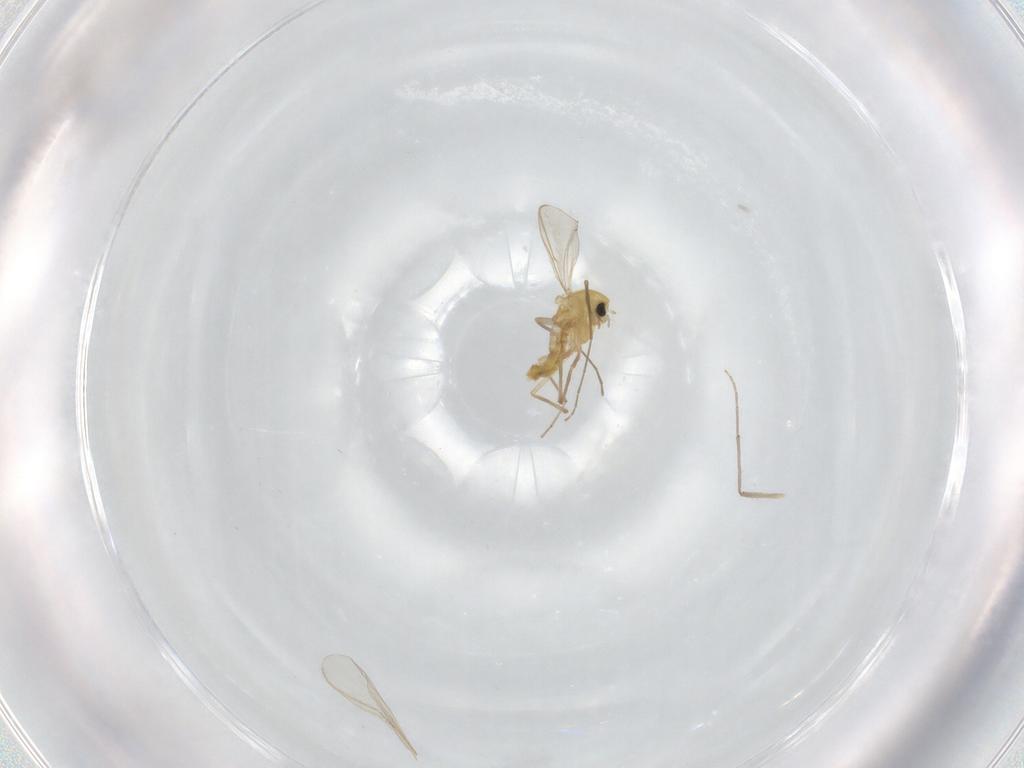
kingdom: Animalia
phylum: Arthropoda
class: Insecta
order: Diptera
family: Chironomidae
